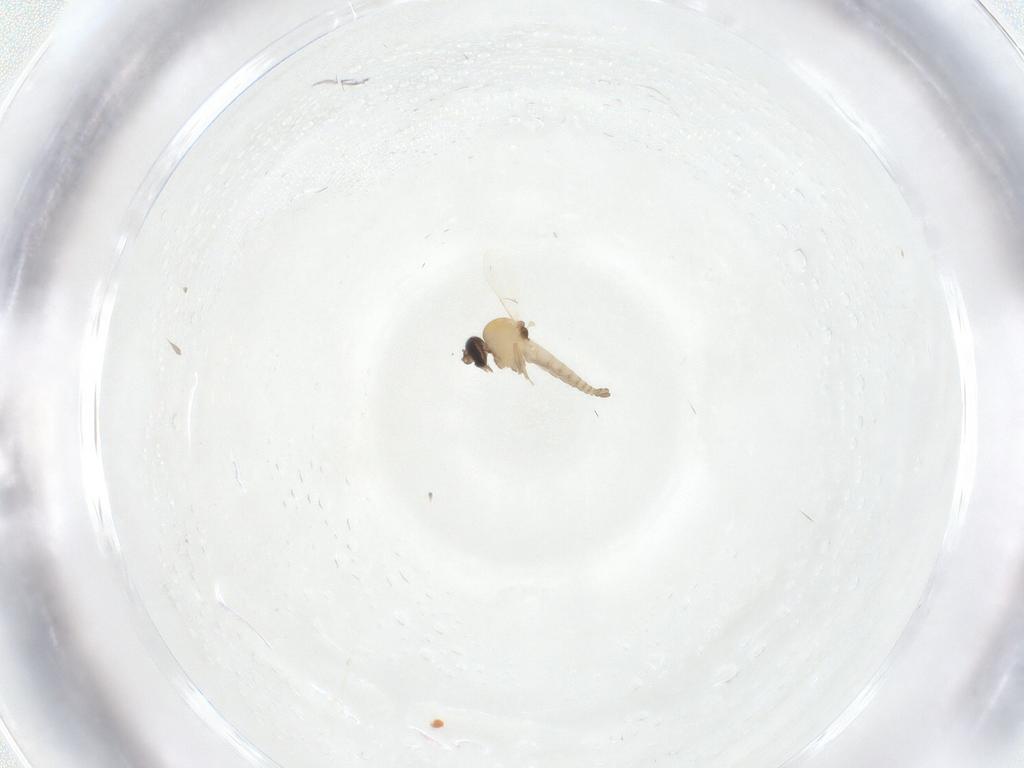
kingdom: Animalia
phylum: Arthropoda
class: Insecta
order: Diptera
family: Ceratopogonidae
